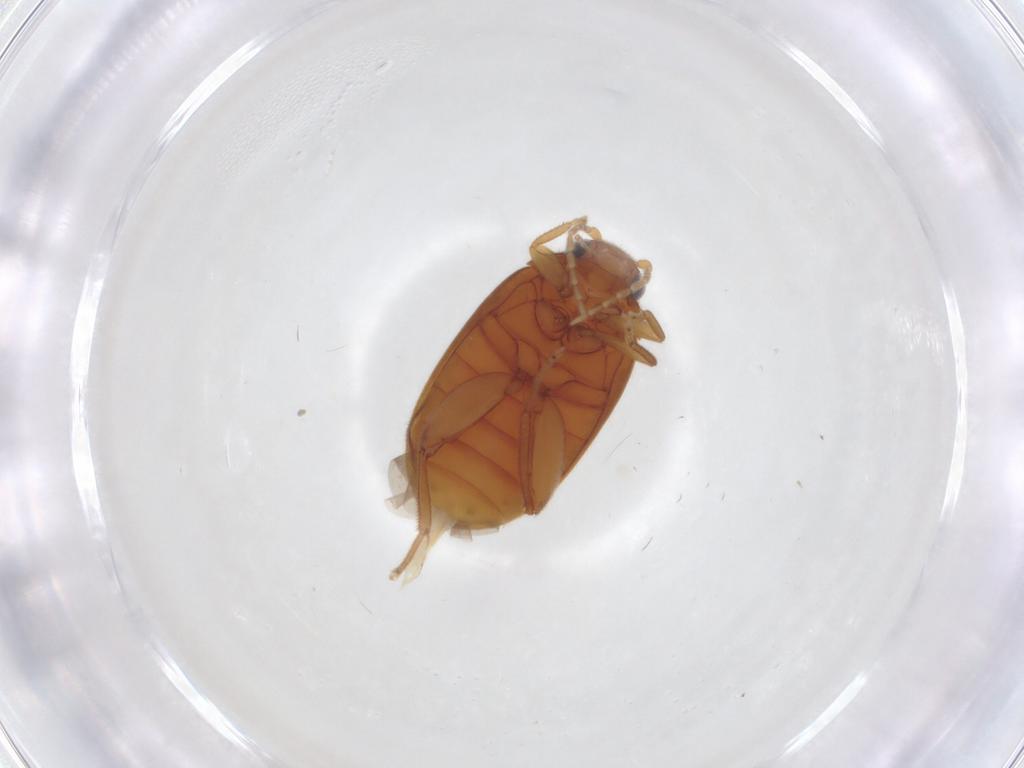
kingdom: Animalia
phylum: Arthropoda
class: Insecta
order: Coleoptera
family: Scirtidae
